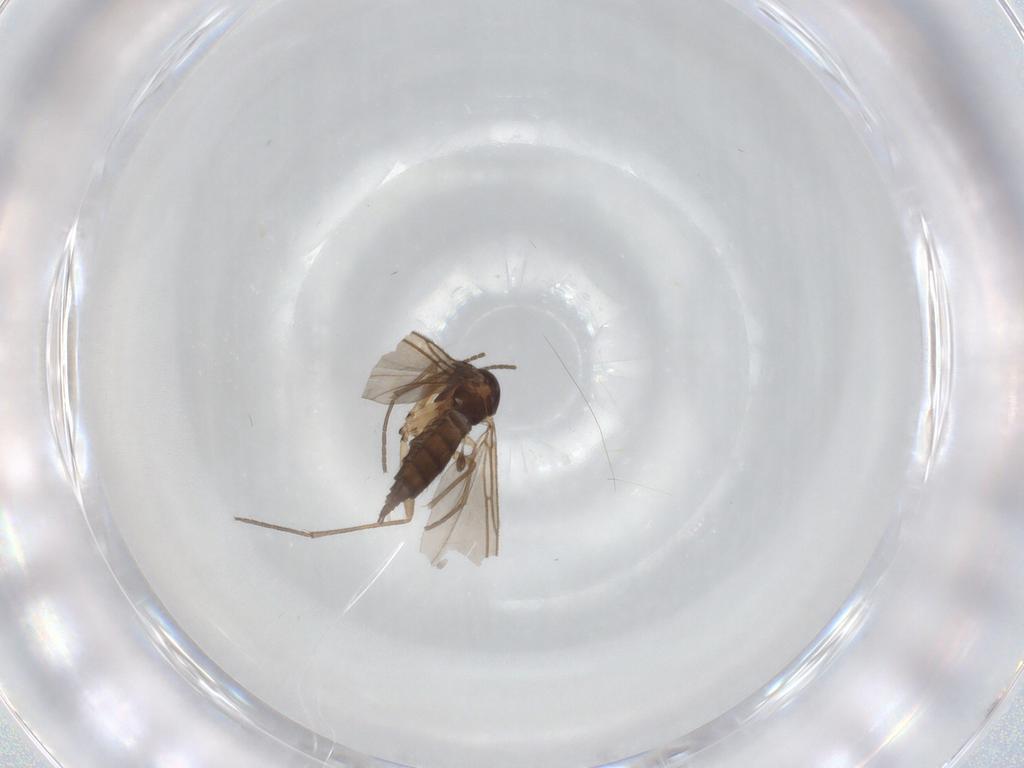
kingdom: Animalia
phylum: Arthropoda
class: Insecta
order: Diptera
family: Sciaridae
